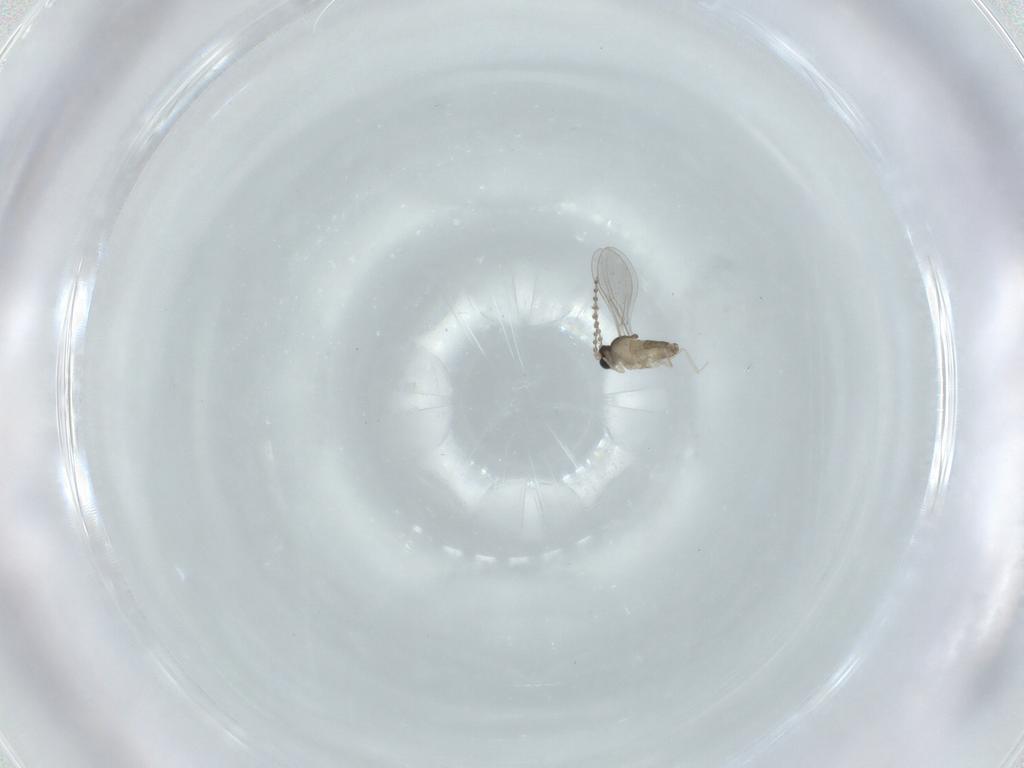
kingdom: Animalia
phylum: Arthropoda
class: Insecta
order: Diptera
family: Cecidomyiidae
